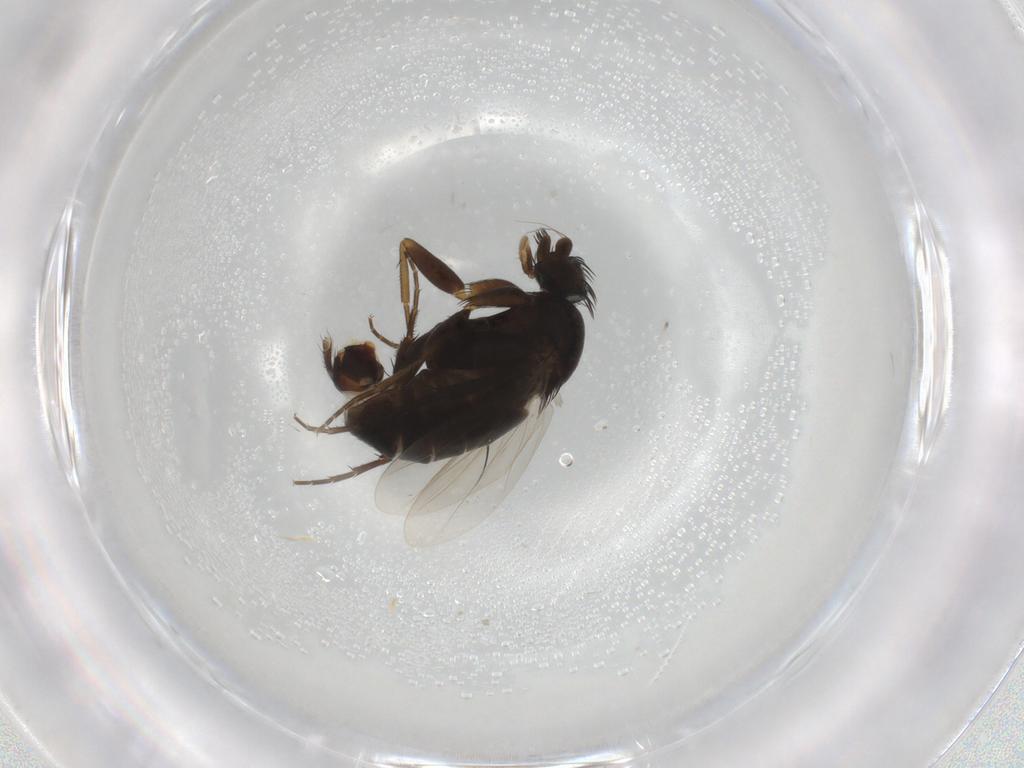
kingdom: Animalia
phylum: Arthropoda
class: Insecta
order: Diptera
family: Phoridae
